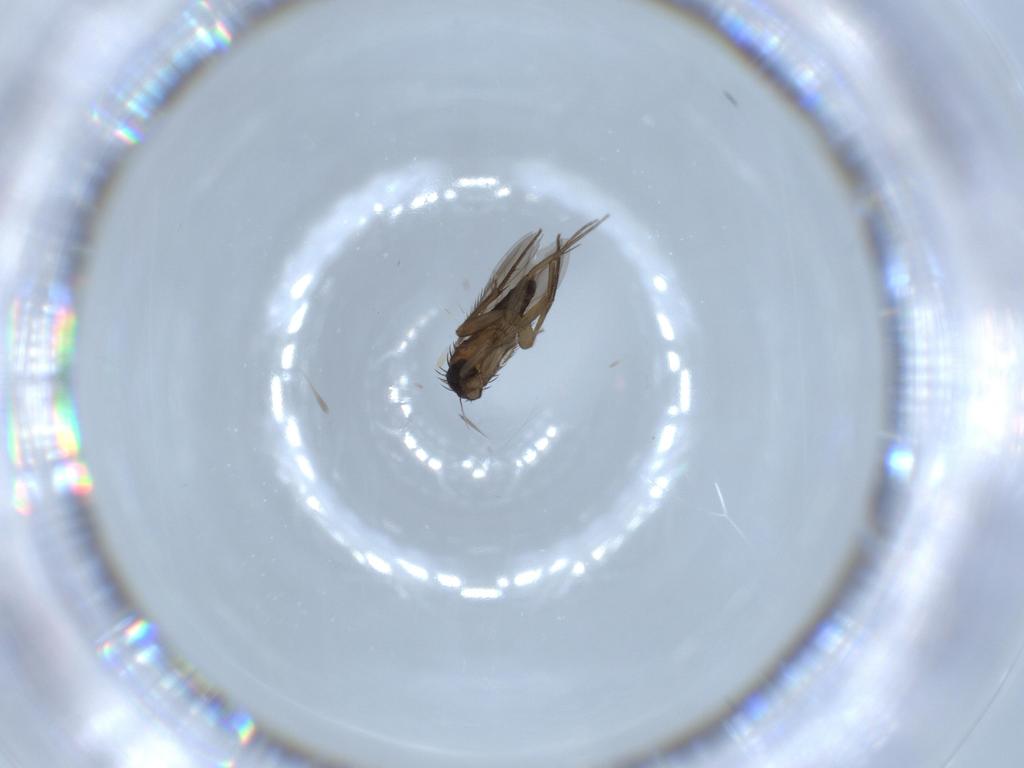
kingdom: Animalia
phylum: Arthropoda
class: Insecta
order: Diptera
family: Phoridae
